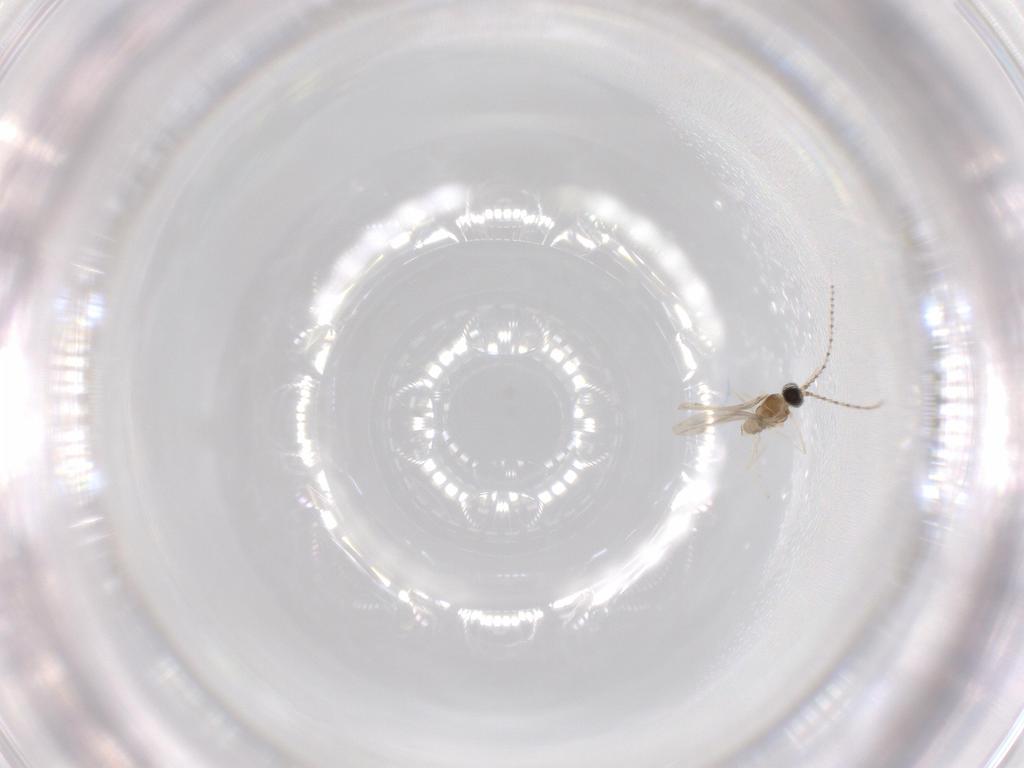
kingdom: Animalia
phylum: Arthropoda
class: Insecta
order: Diptera
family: Cecidomyiidae
